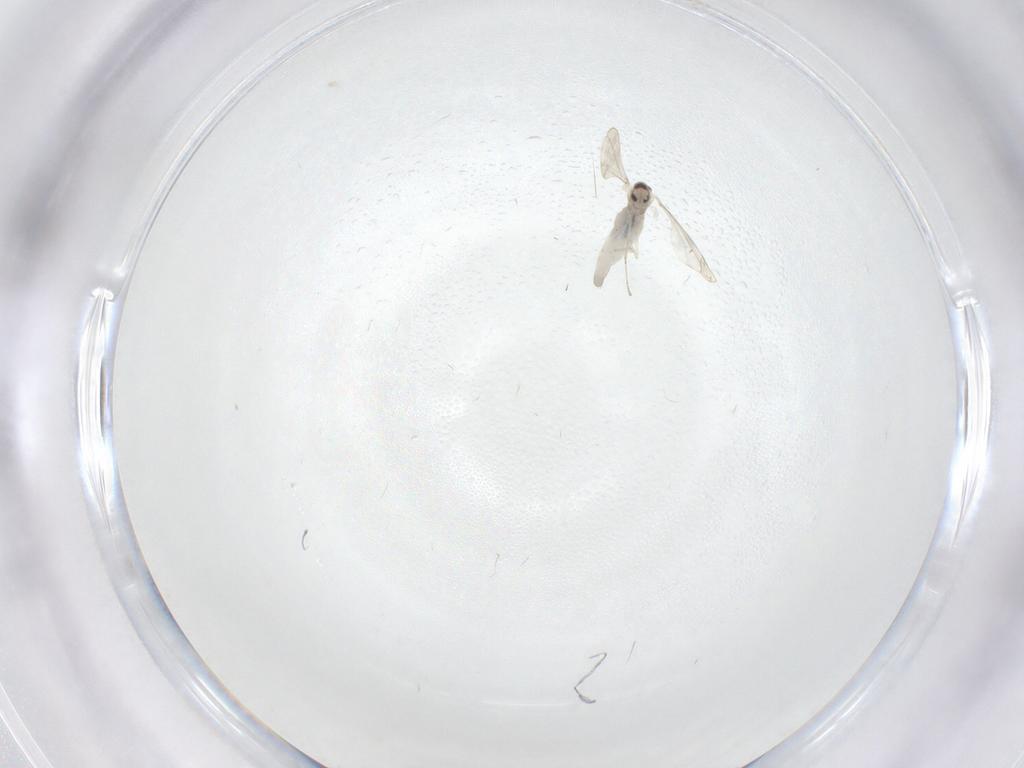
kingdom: Animalia
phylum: Arthropoda
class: Insecta
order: Diptera
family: Cecidomyiidae
